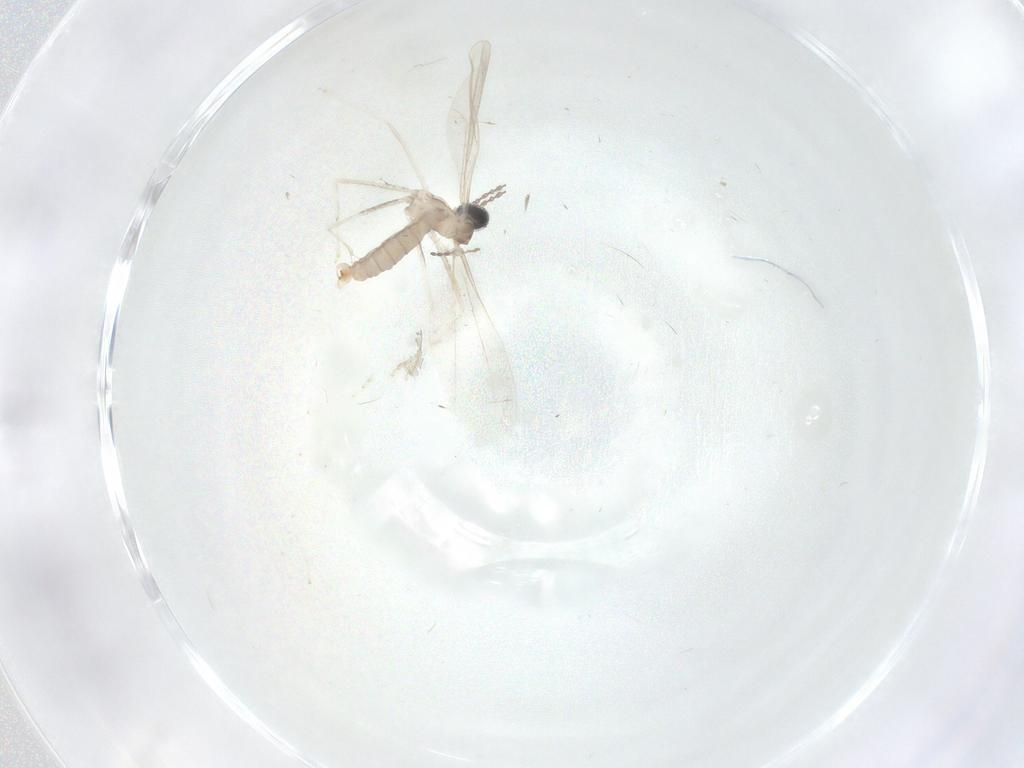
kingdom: Animalia
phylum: Arthropoda
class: Insecta
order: Diptera
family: Cecidomyiidae
